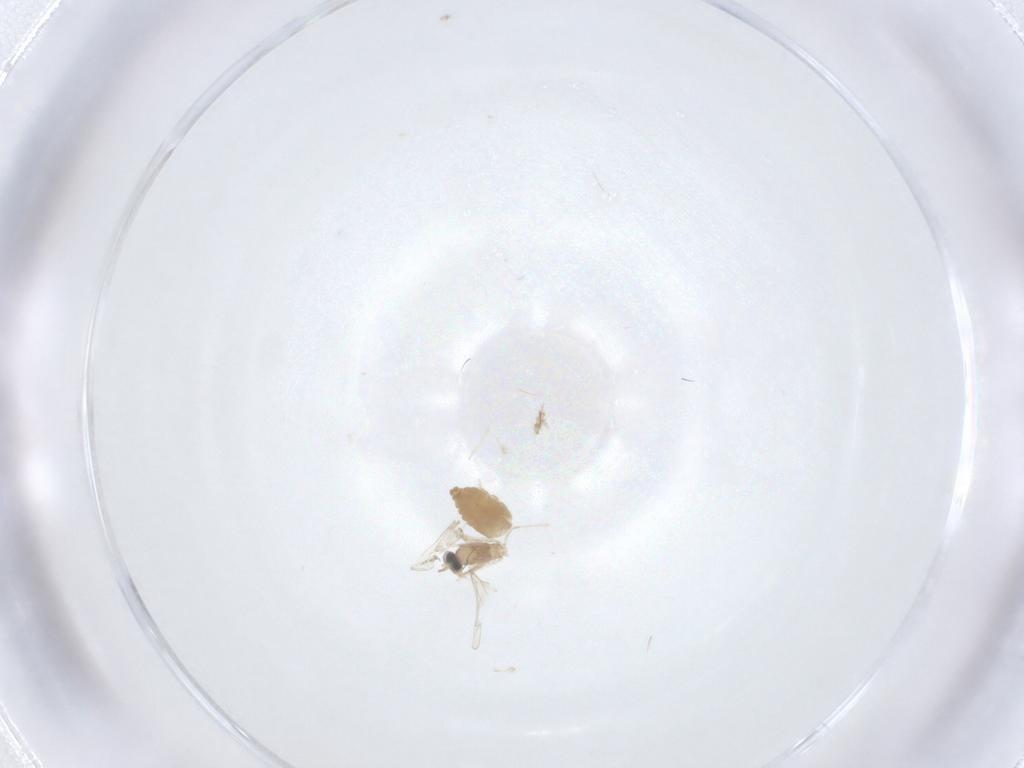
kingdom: Animalia
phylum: Arthropoda
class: Insecta
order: Diptera
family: Cecidomyiidae
